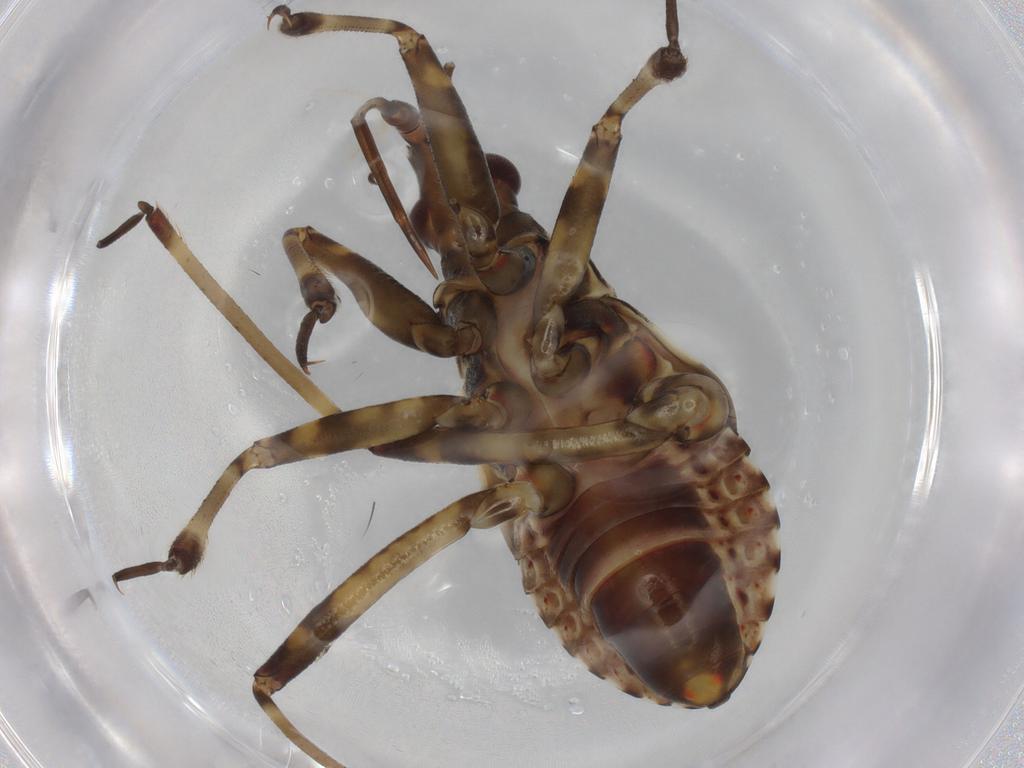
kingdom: Animalia
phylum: Arthropoda
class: Insecta
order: Hemiptera
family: Nabidae
